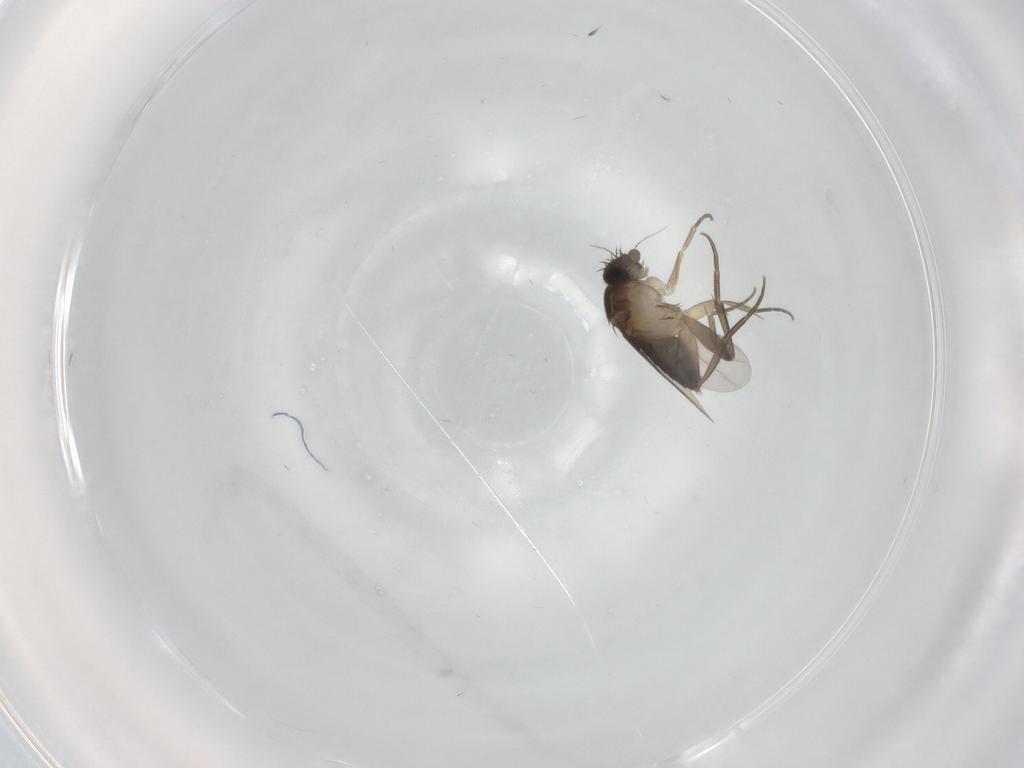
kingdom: Animalia
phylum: Arthropoda
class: Insecta
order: Diptera
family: Phoridae
